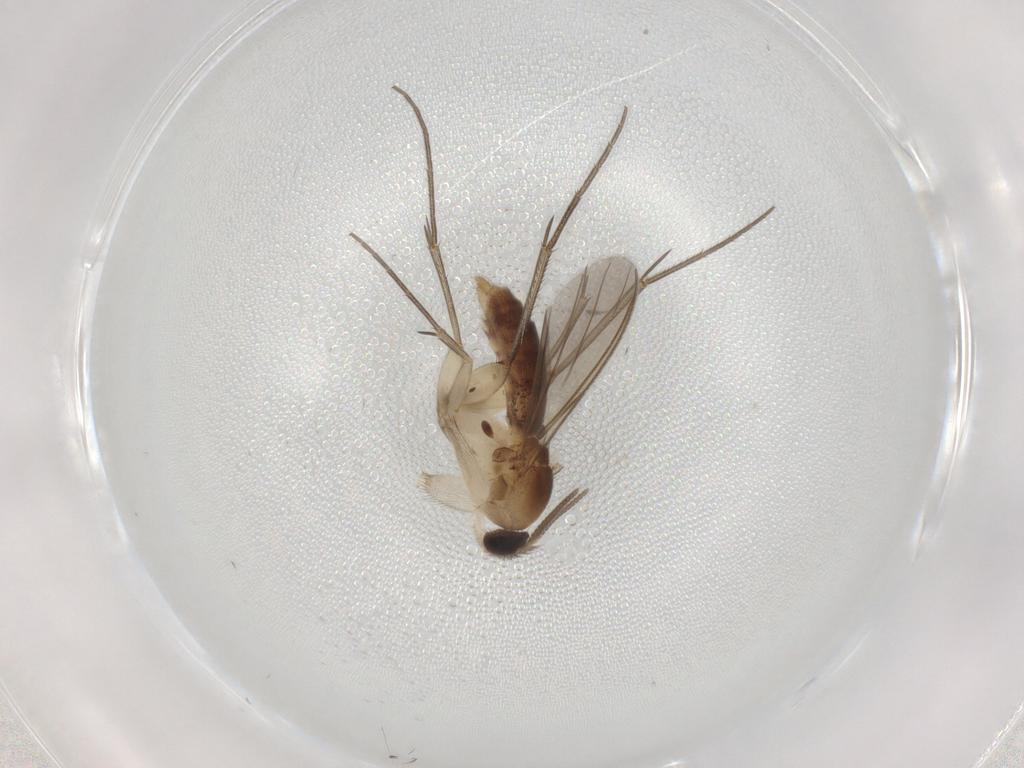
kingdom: Animalia
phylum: Arthropoda
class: Insecta
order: Diptera
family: Mycetophilidae
